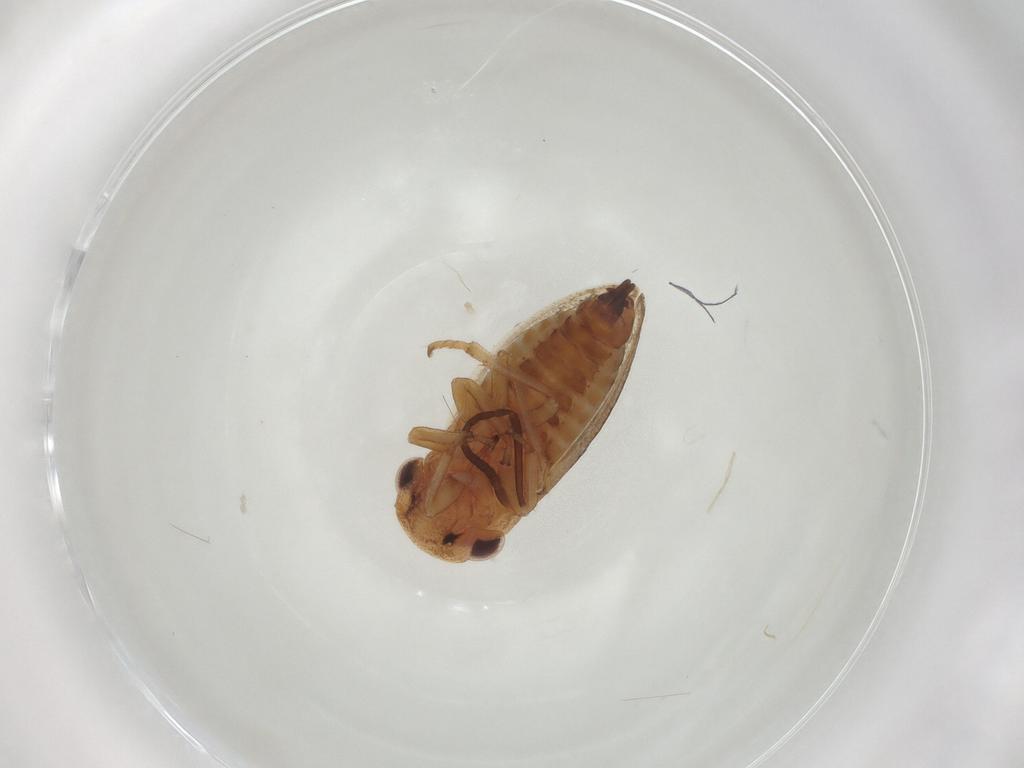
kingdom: Animalia
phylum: Arthropoda
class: Insecta
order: Hemiptera
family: Cicadellidae
